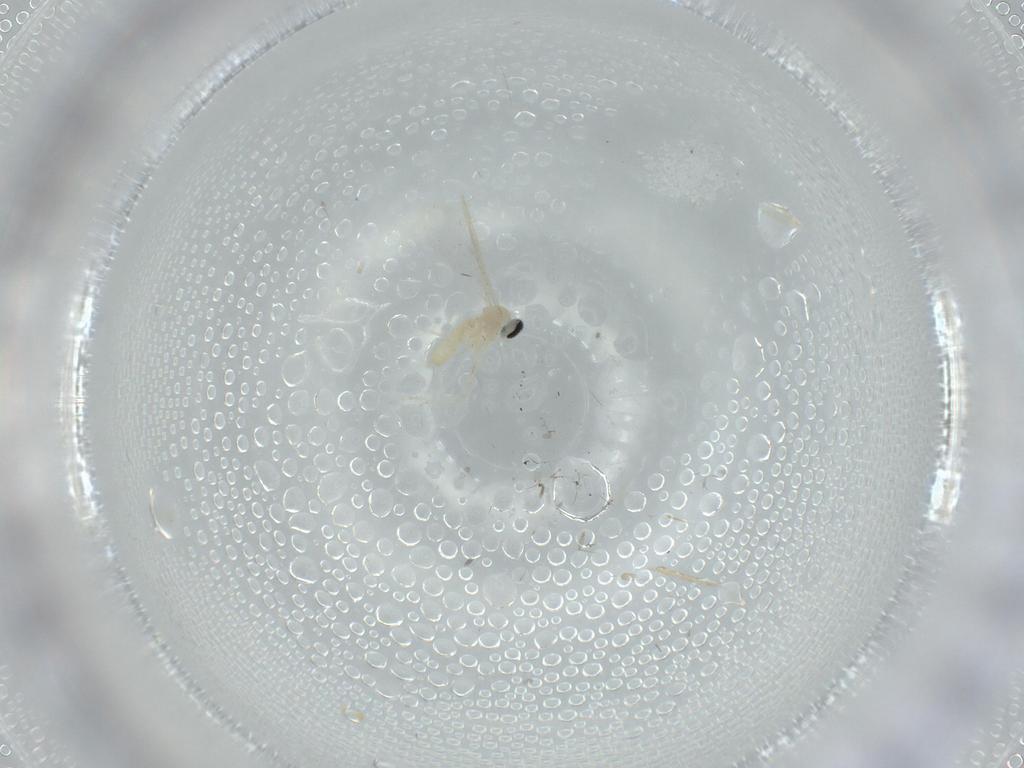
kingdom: Animalia
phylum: Arthropoda
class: Insecta
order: Diptera
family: Cecidomyiidae
